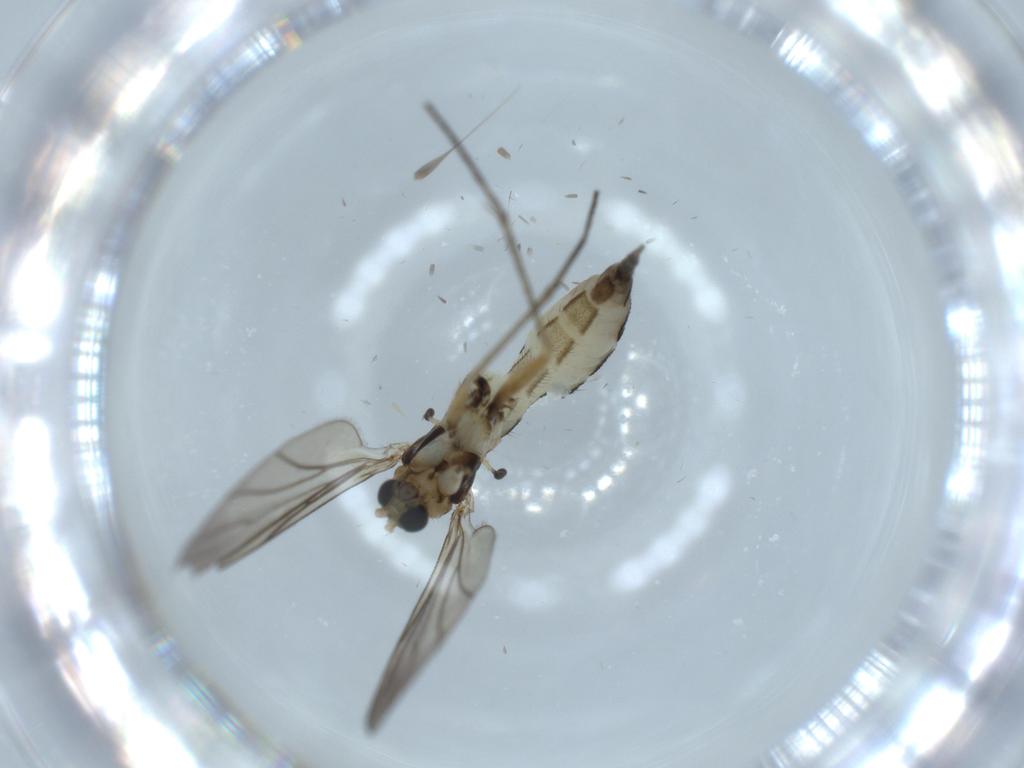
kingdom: Animalia
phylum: Arthropoda
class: Insecta
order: Diptera
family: Sciaridae
